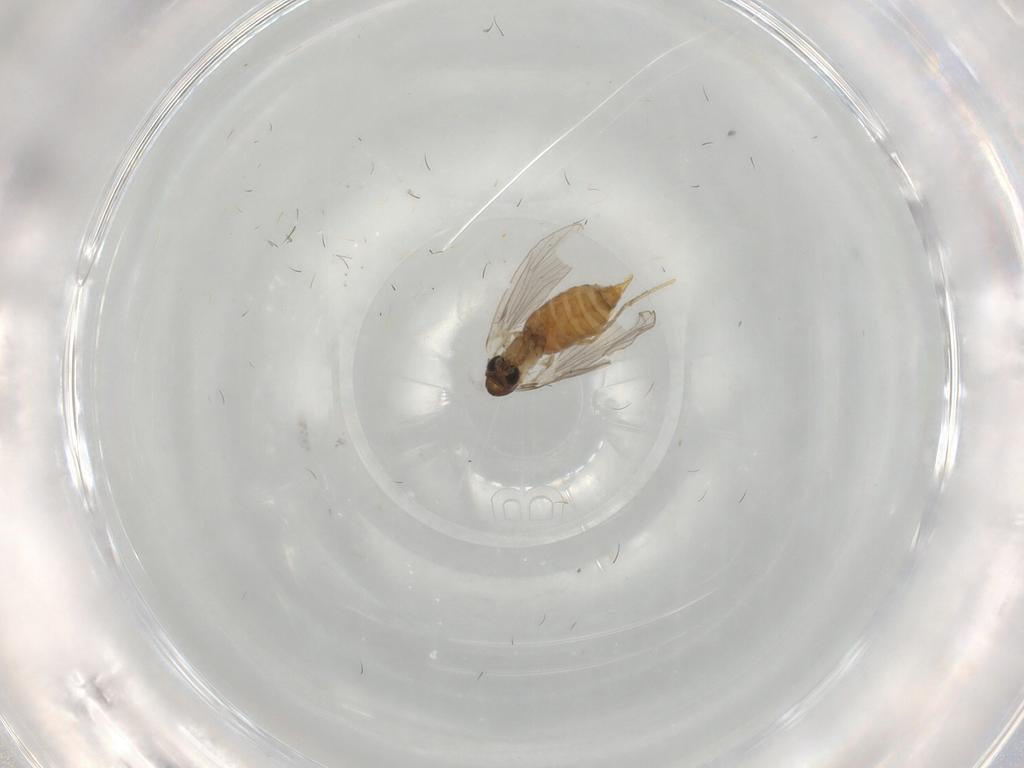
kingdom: Animalia
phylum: Arthropoda
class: Insecta
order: Diptera
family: Psychodidae
